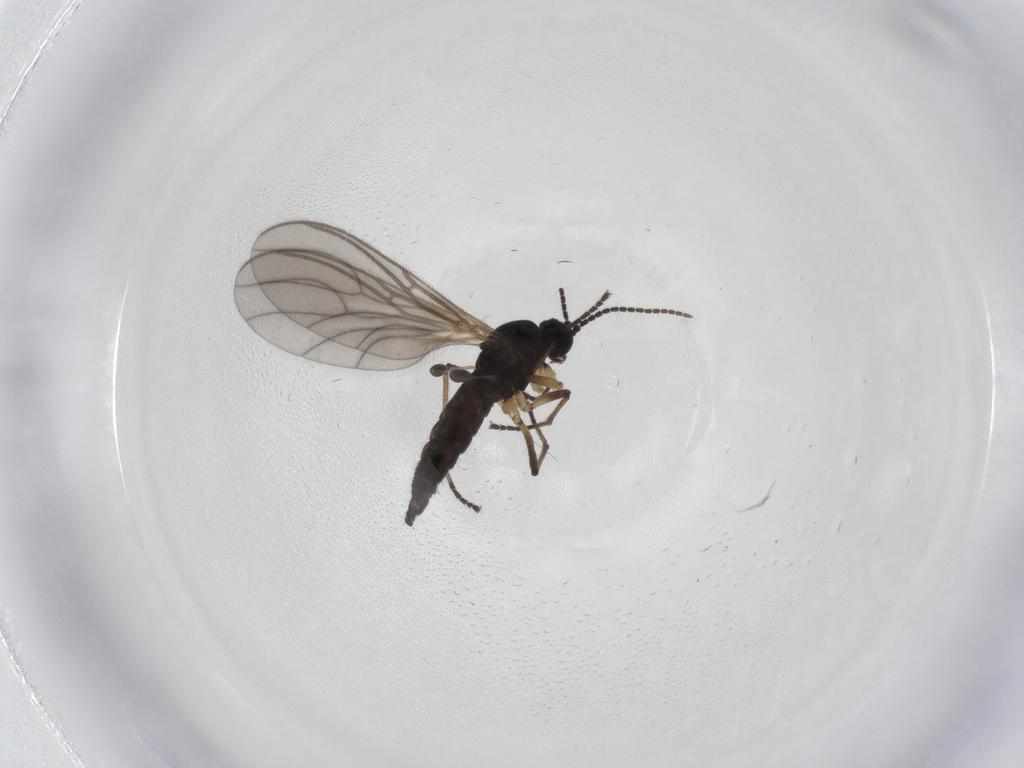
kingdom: Animalia
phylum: Arthropoda
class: Insecta
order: Diptera
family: Sciaridae
